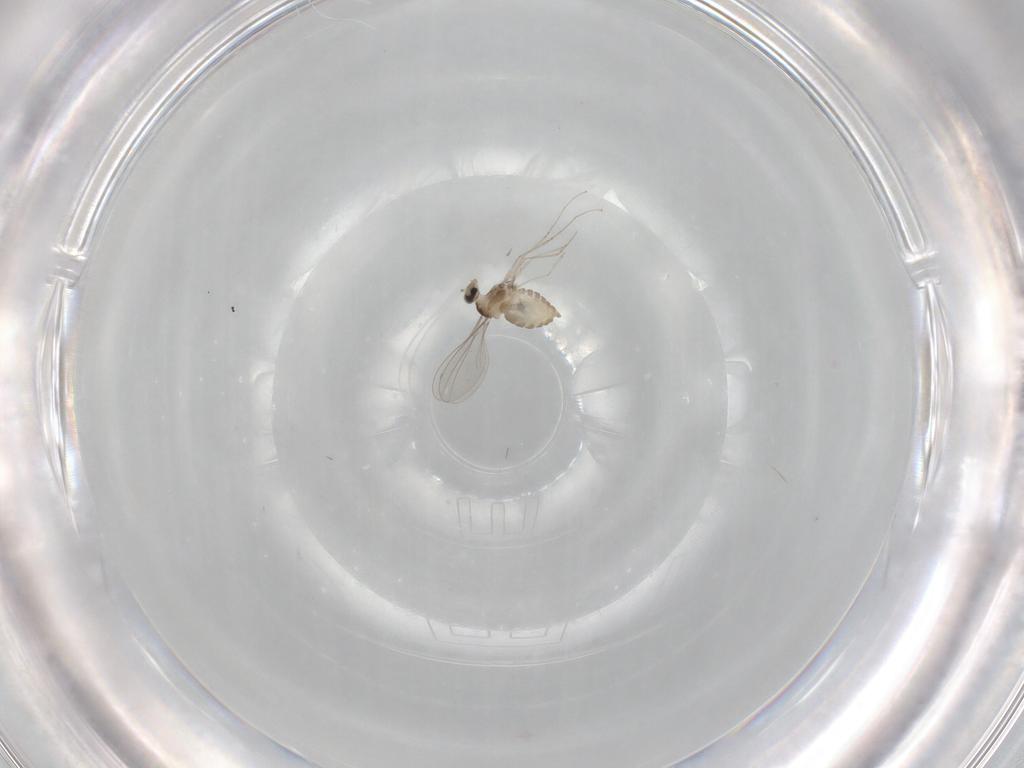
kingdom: Animalia
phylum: Arthropoda
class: Insecta
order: Diptera
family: Cecidomyiidae
